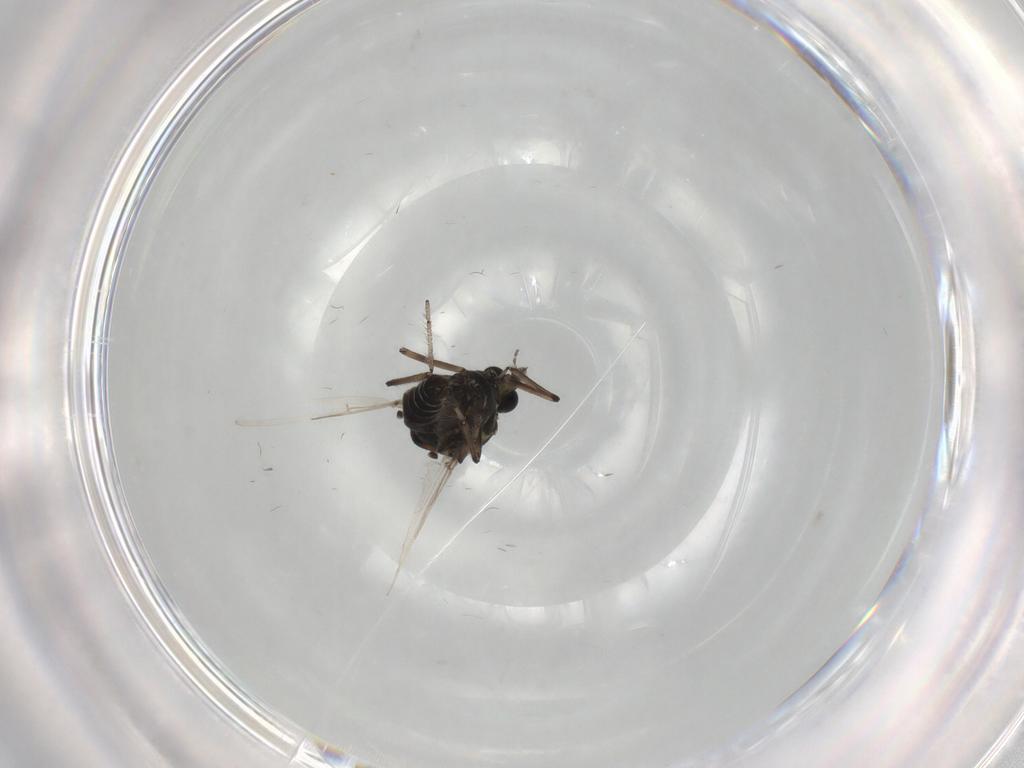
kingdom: Animalia
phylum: Arthropoda
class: Insecta
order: Diptera
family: Ceratopogonidae
